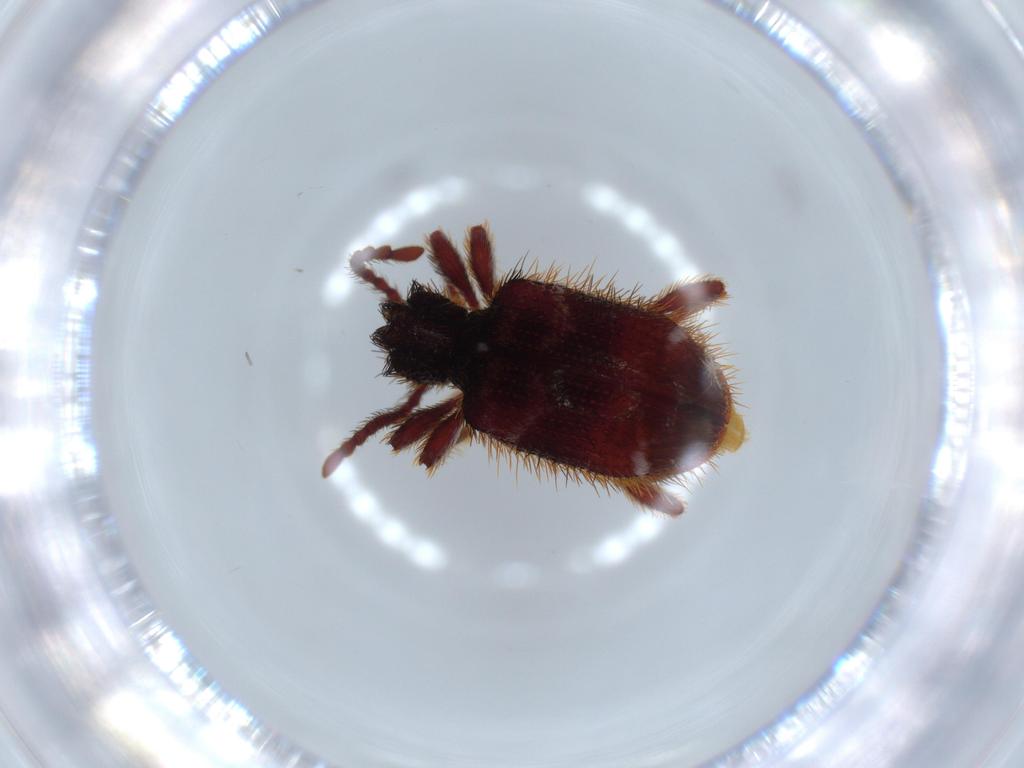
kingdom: Animalia
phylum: Arthropoda
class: Insecta
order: Coleoptera
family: Ptinidae
